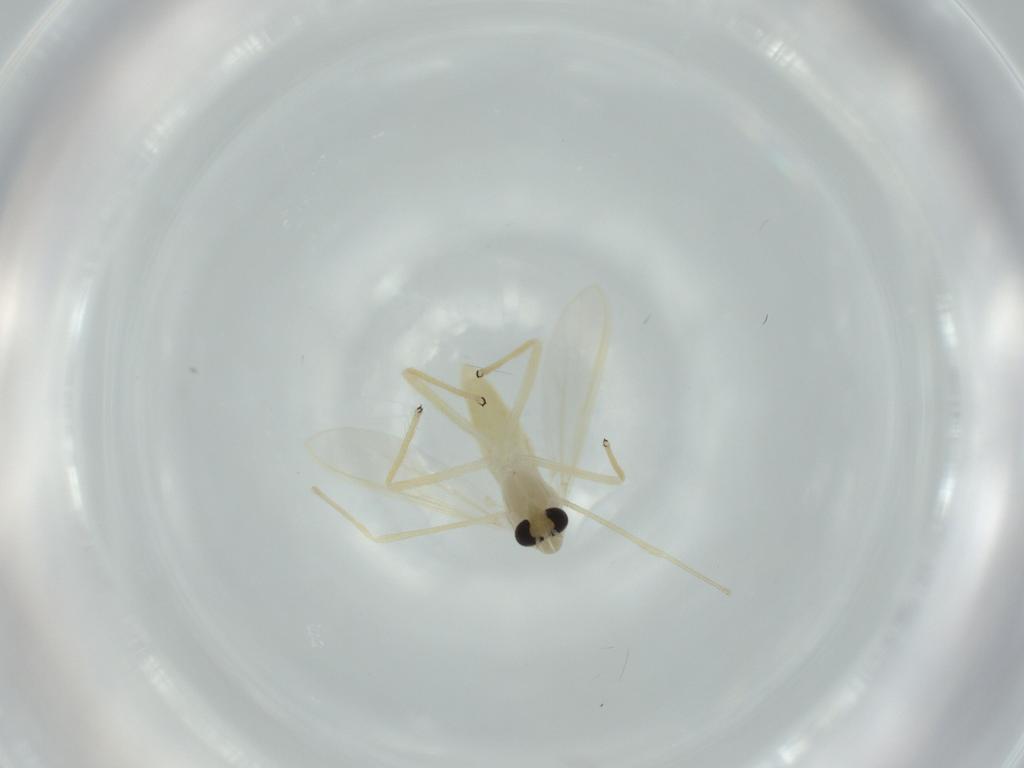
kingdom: Animalia
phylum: Arthropoda
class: Insecta
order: Diptera
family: Chironomidae
